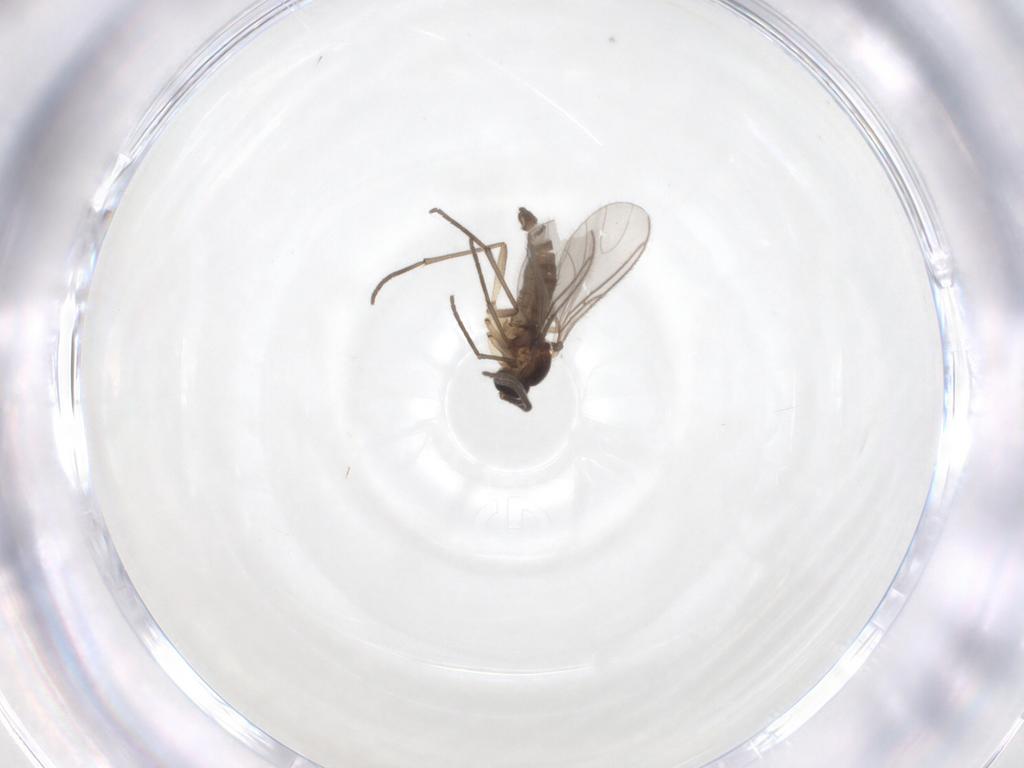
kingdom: Animalia
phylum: Arthropoda
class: Insecta
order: Diptera
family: Sciaridae
